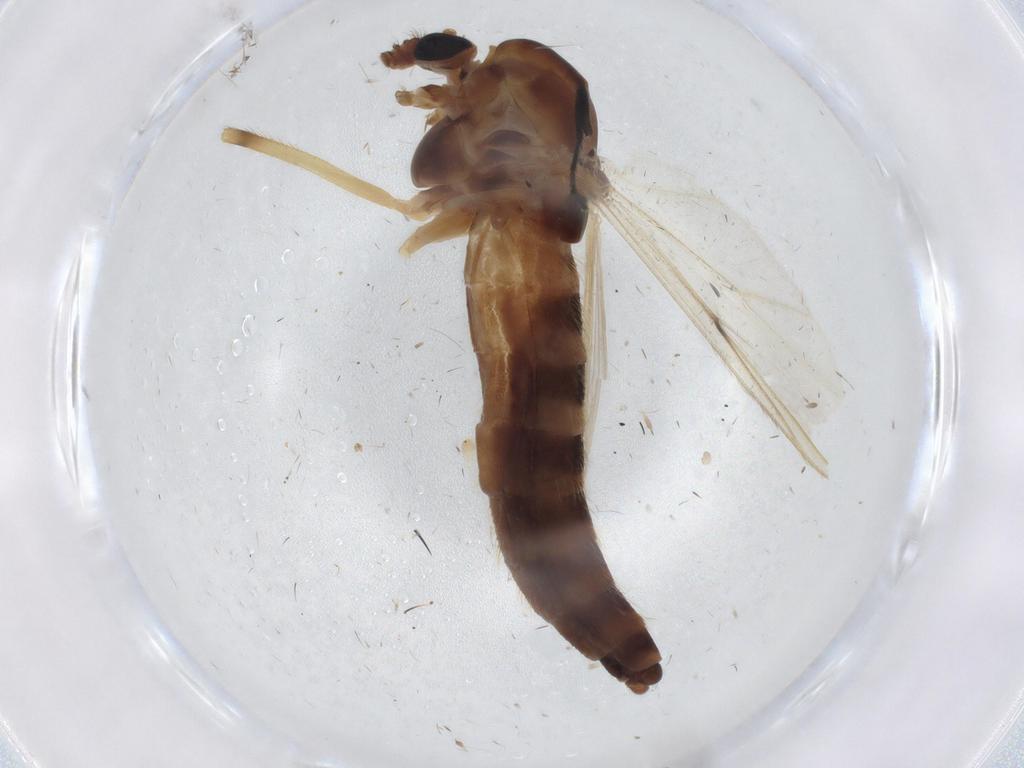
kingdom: Animalia
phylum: Arthropoda
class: Insecta
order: Diptera
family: Chironomidae
